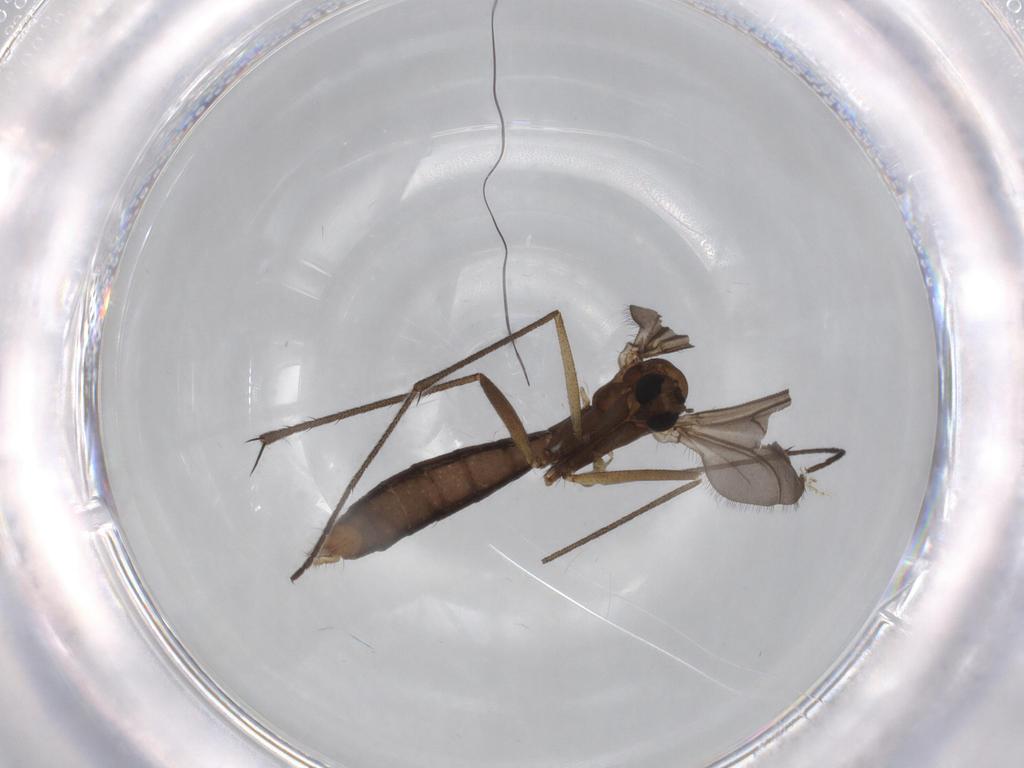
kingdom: Animalia
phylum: Arthropoda
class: Insecta
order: Diptera
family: Ditomyiidae
